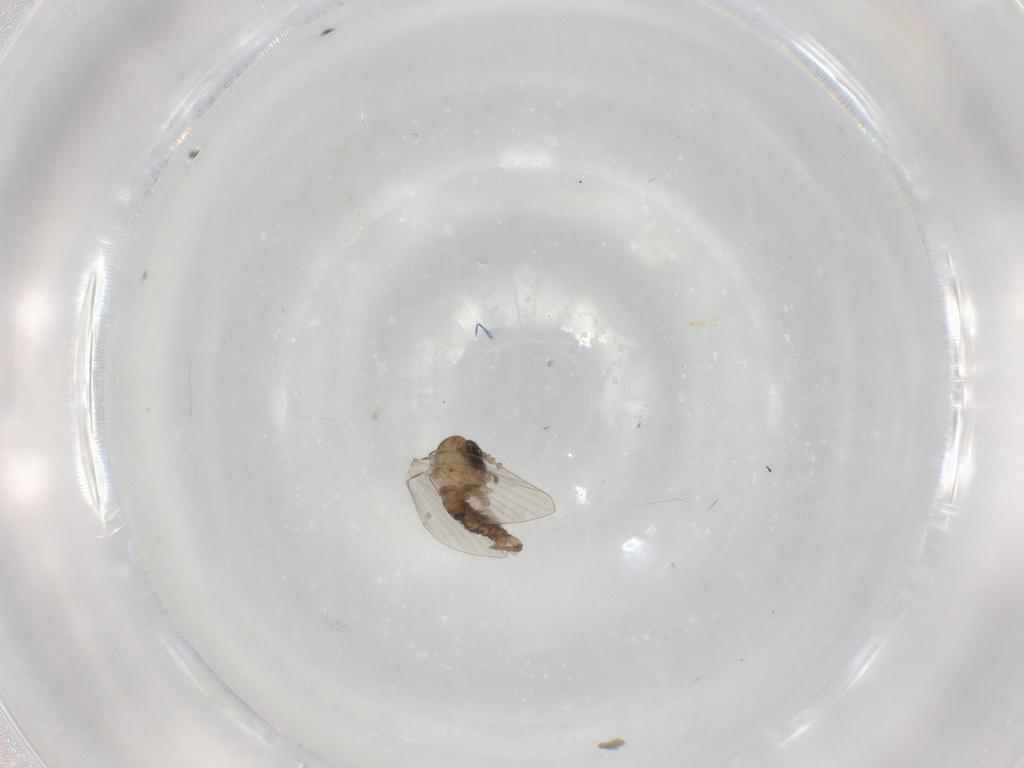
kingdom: Animalia
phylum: Arthropoda
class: Insecta
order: Diptera
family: Drosophilidae
